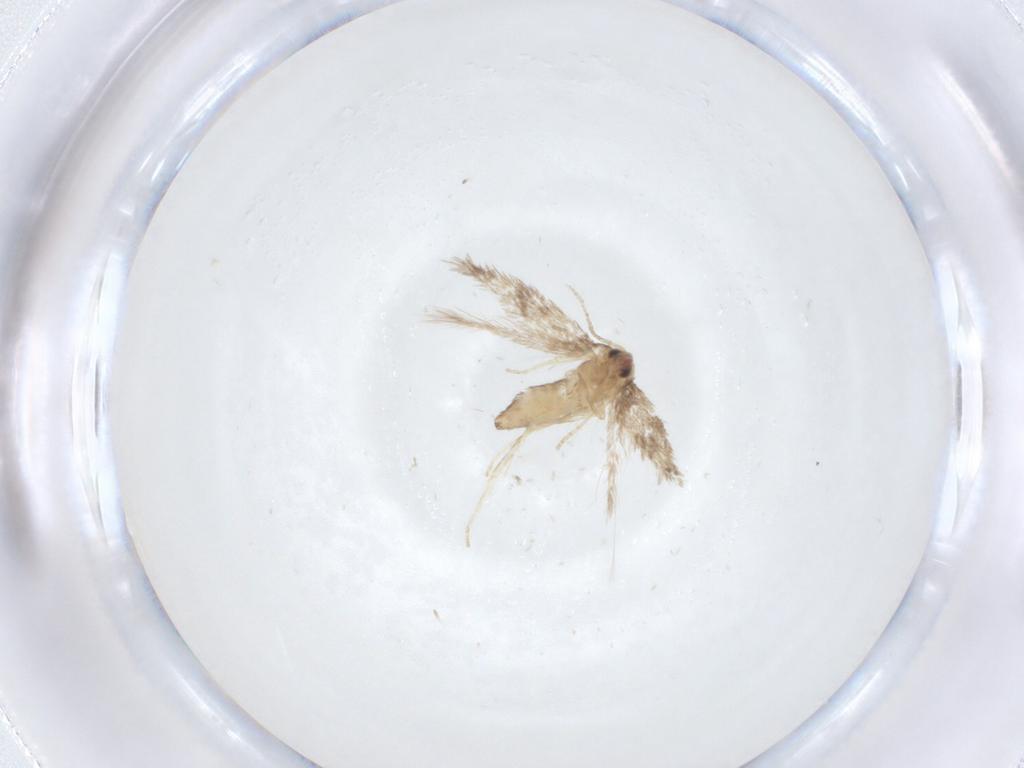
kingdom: Animalia
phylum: Arthropoda
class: Insecta
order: Lepidoptera
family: Nepticulidae
